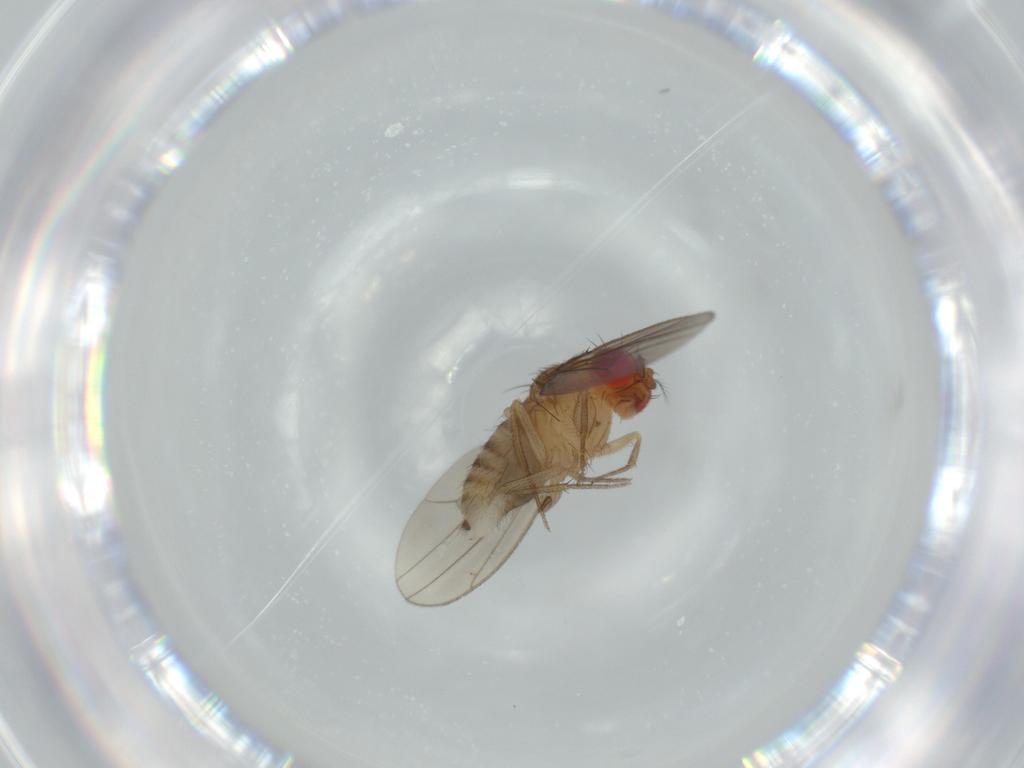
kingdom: Animalia
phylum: Arthropoda
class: Insecta
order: Diptera
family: Drosophilidae
